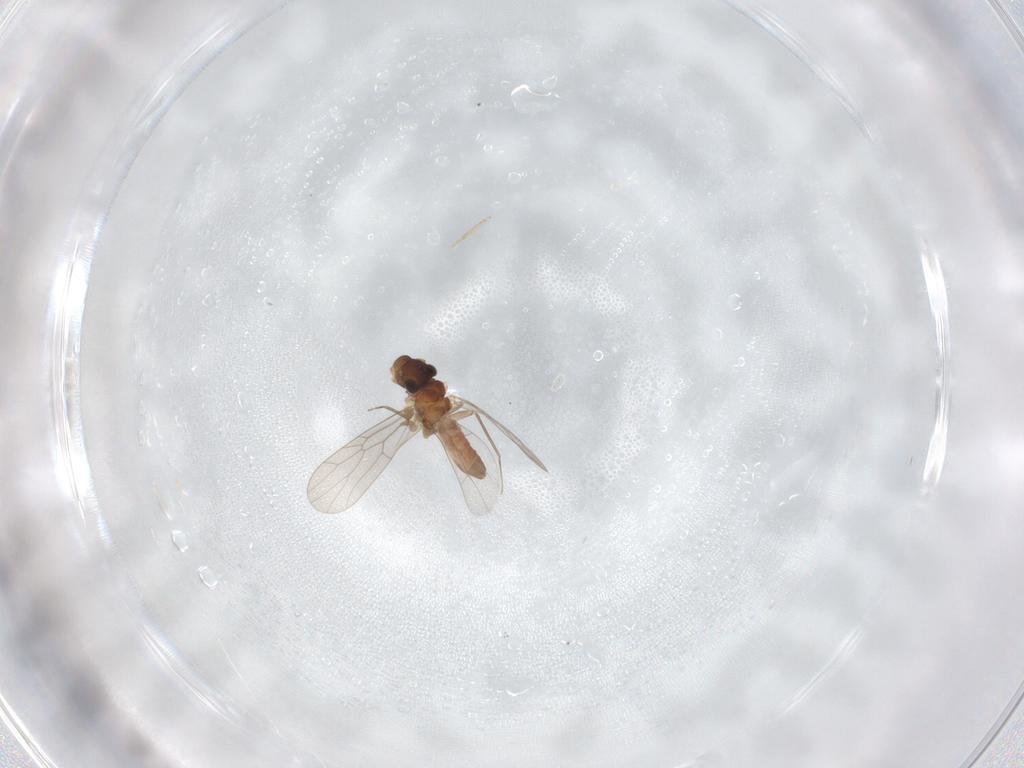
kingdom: Animalia
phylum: Arthropoda
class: Insecta
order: Psocodea
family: Lepidopsocidae
